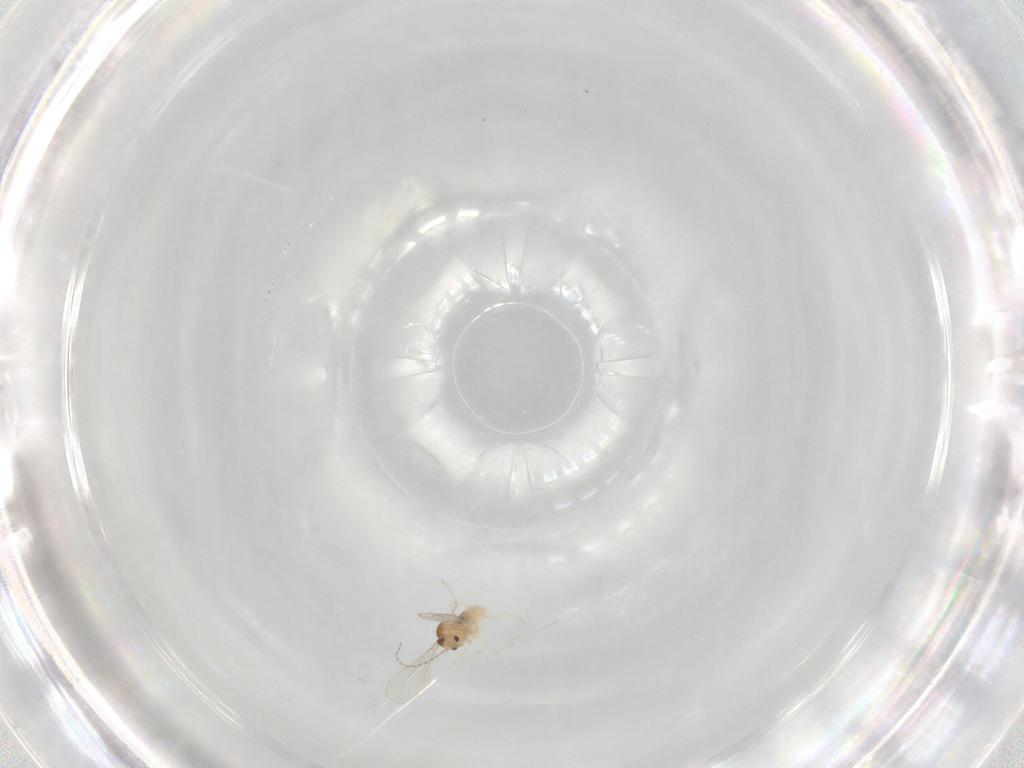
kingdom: Animalia
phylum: Arthropoda
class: Insecta
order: Diptera
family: Cecidomyiidae
